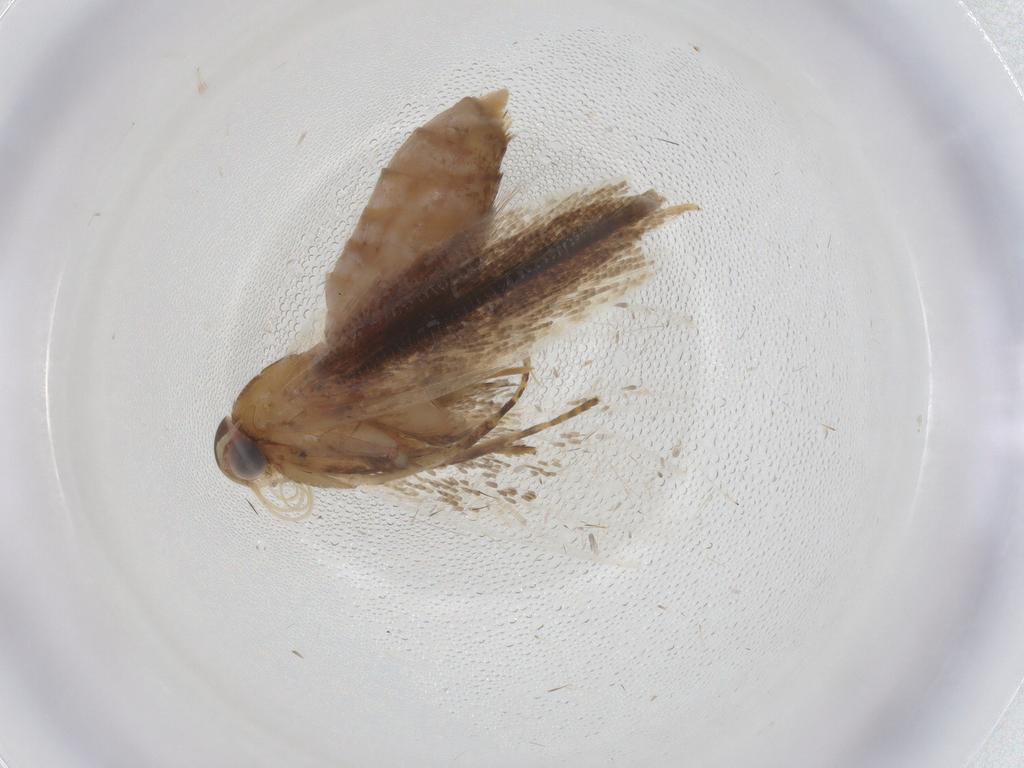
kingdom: Animalia
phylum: Arthropoda
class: Insecta
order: Lepidoptera
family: Gelechiidae
